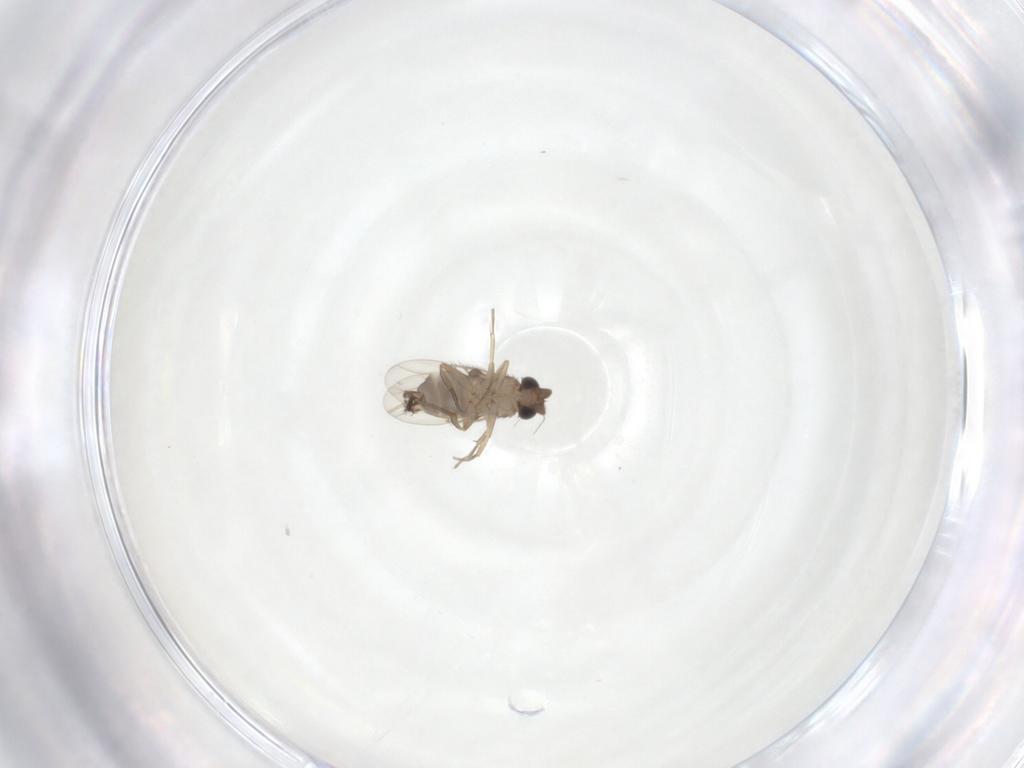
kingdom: Animalia
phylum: Arthropoda
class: Insecta
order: Diptera
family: Phoridae
